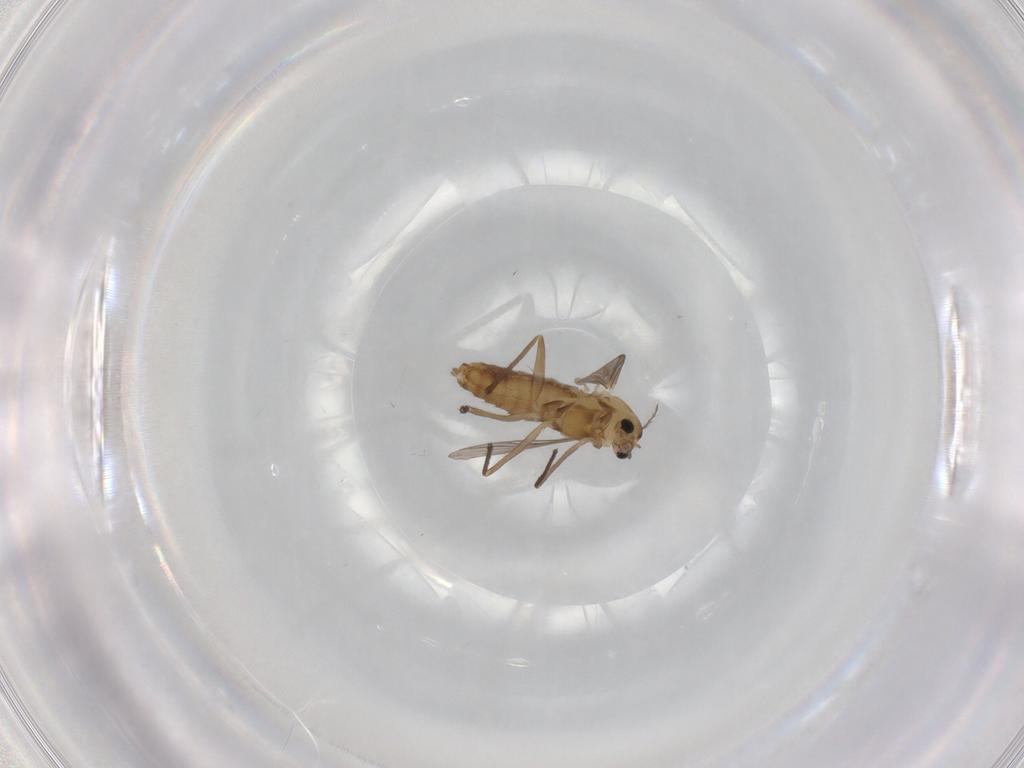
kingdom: Animalia
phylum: Arthropoda
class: Insecta
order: Diptera
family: Chironomidae
